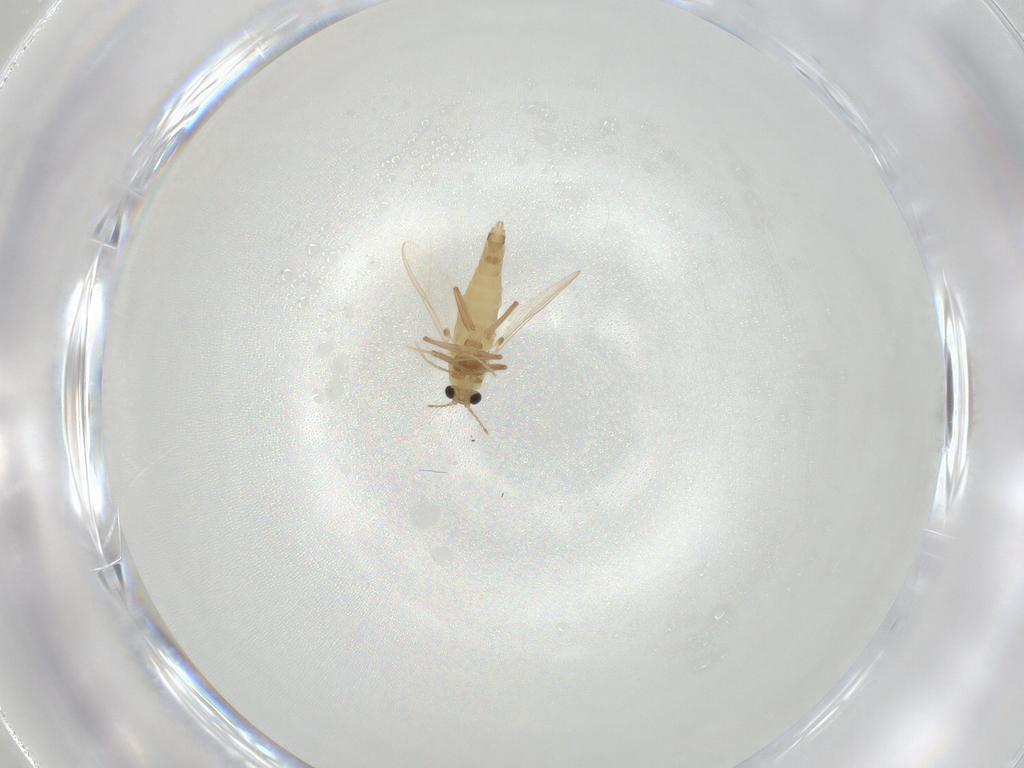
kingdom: Animalia
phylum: Arthropoda
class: Insecta
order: Diptera
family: Chironomidae
